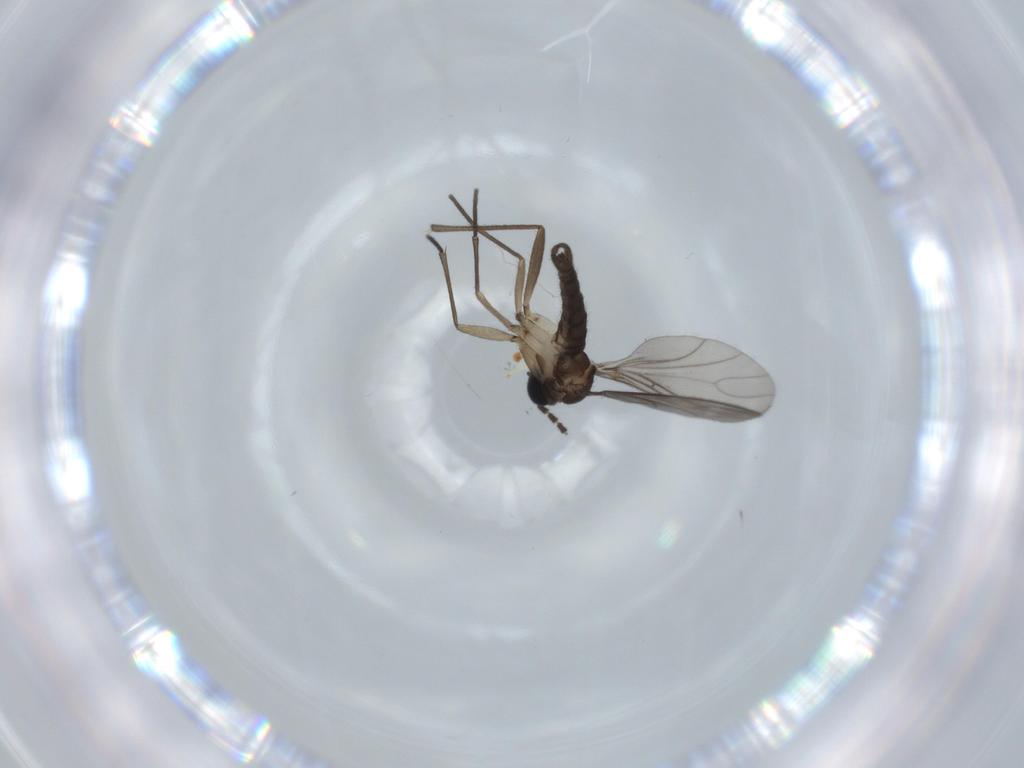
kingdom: Animalia
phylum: Arthropoda
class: Insecta
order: Diptera
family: Sciaridae
